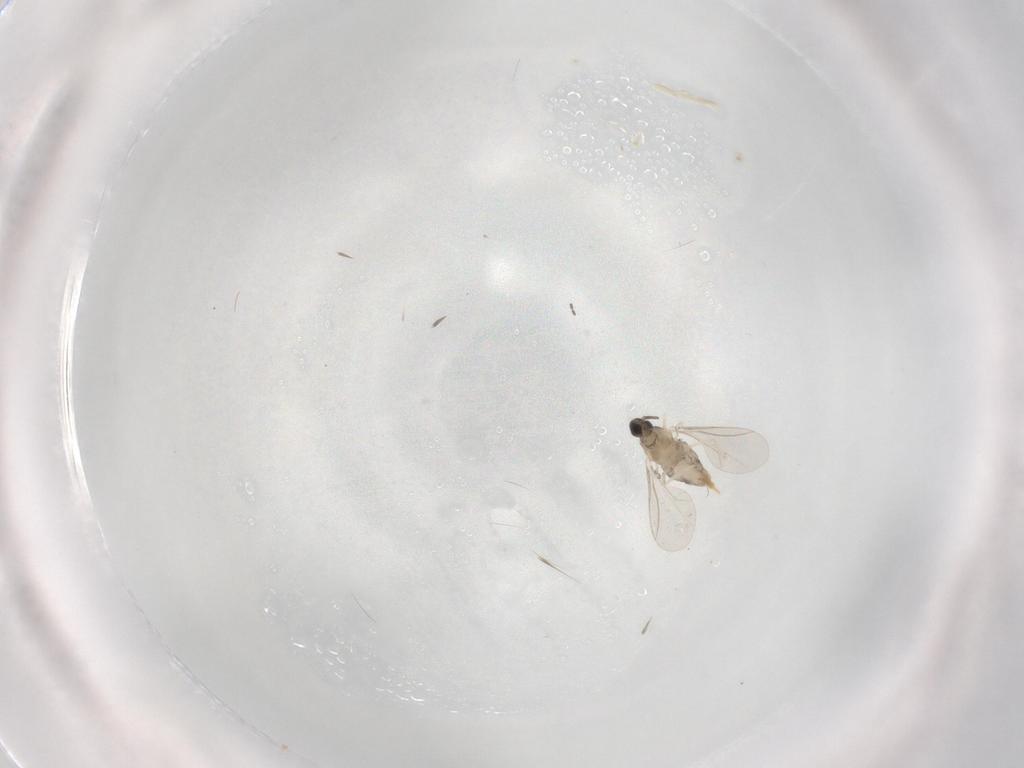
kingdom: Animalia
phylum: Arthropoda
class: Insecta
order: Diptera
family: Cecidomyiidae
